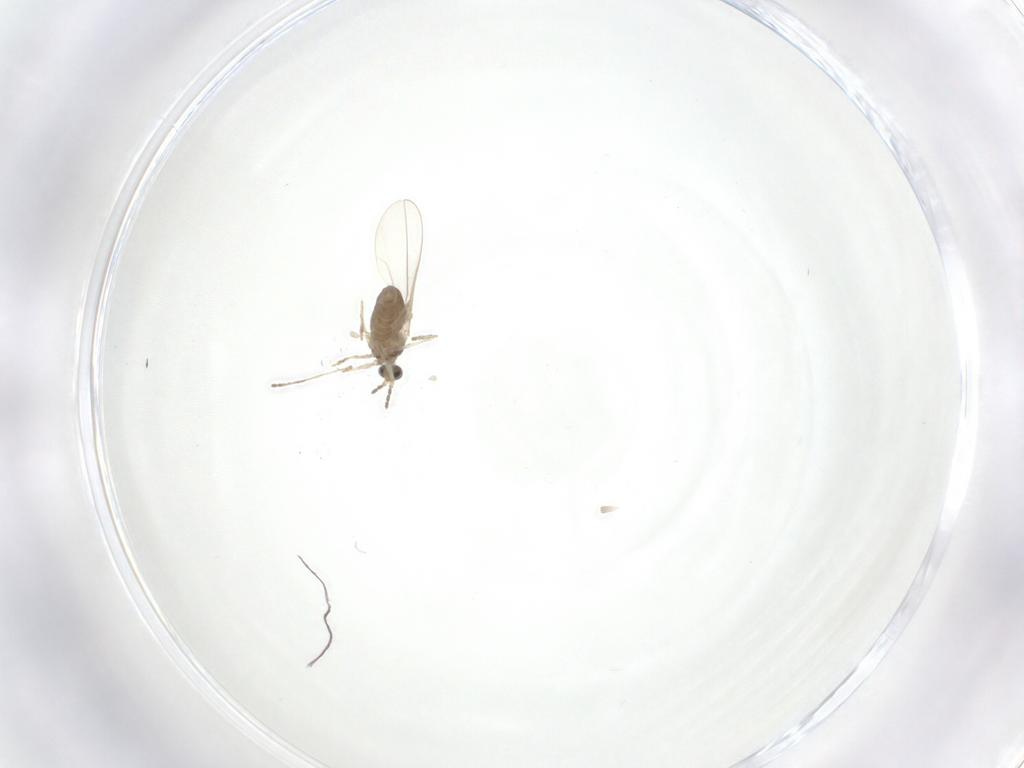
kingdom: Animalia
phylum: Arthropoda
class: Insecta
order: Diptera
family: Cecidomyiidae
